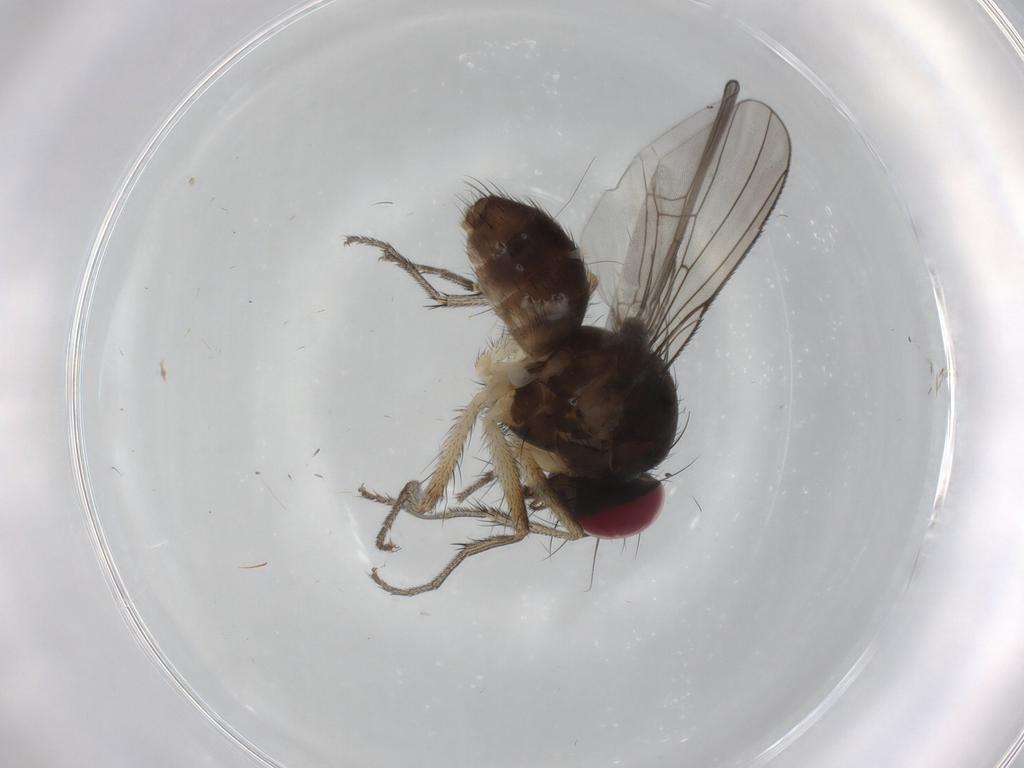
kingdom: Animalia
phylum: Arthropoda
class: Insecta
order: Diptera
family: Muscidae
